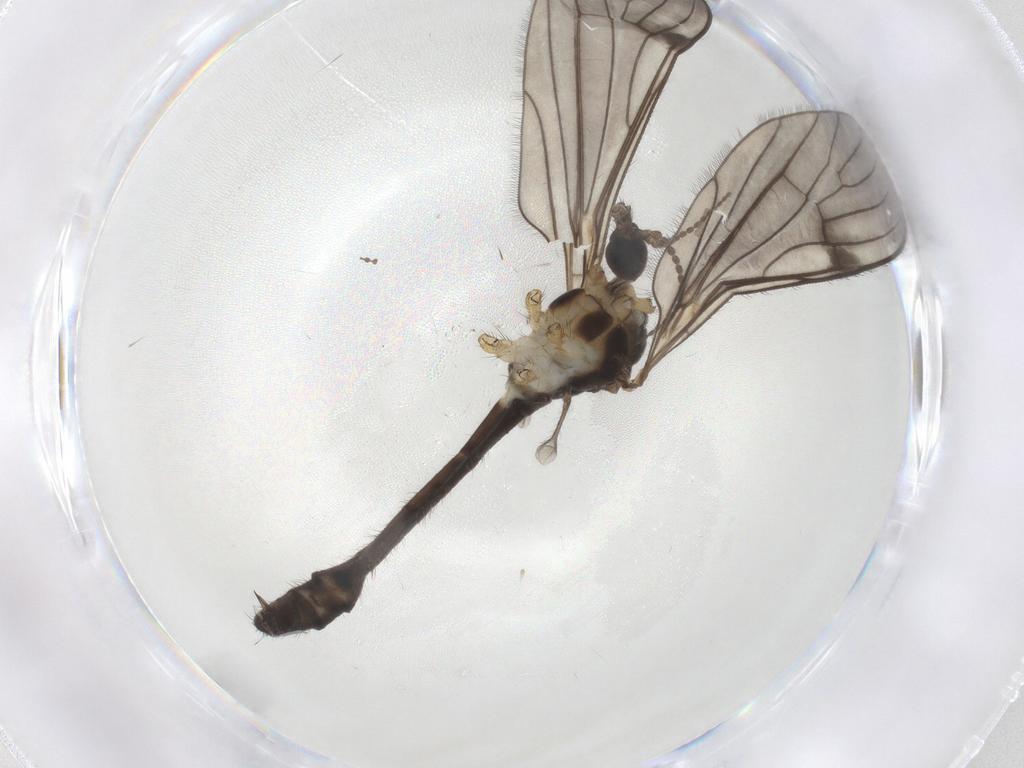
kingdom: Animalia
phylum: Arthropoda
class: Insecta
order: Diptera
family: Limoniidae
